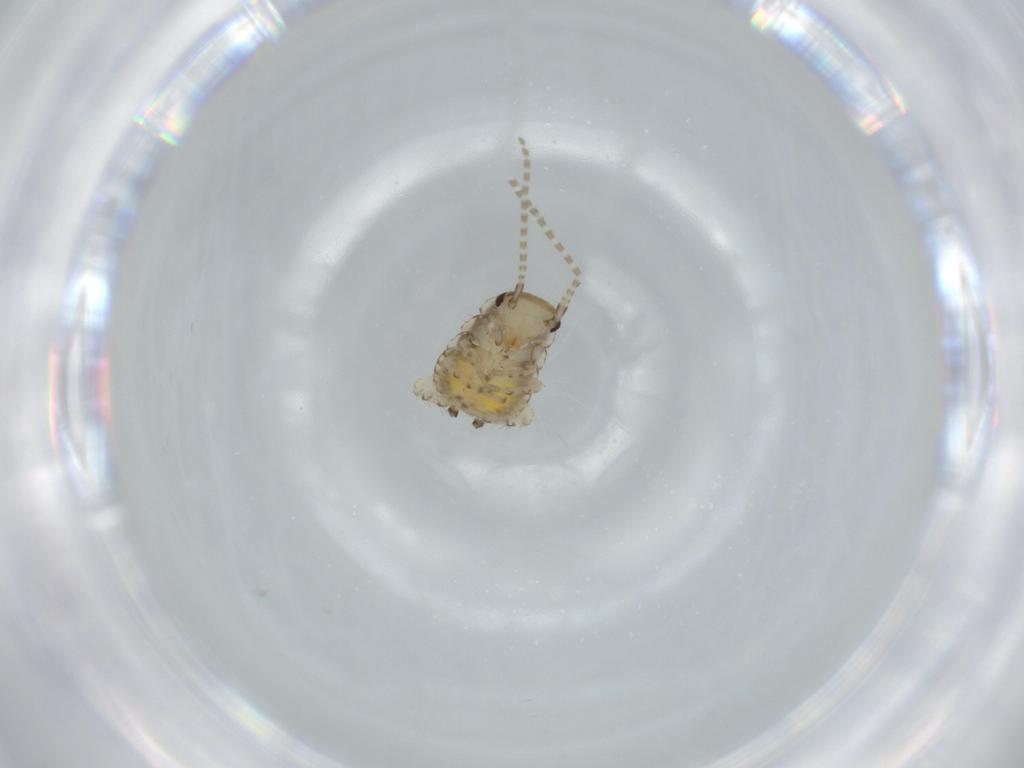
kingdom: Animalia
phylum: Arthropoda
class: Insecta
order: Blattodea
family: Ectobiidae
